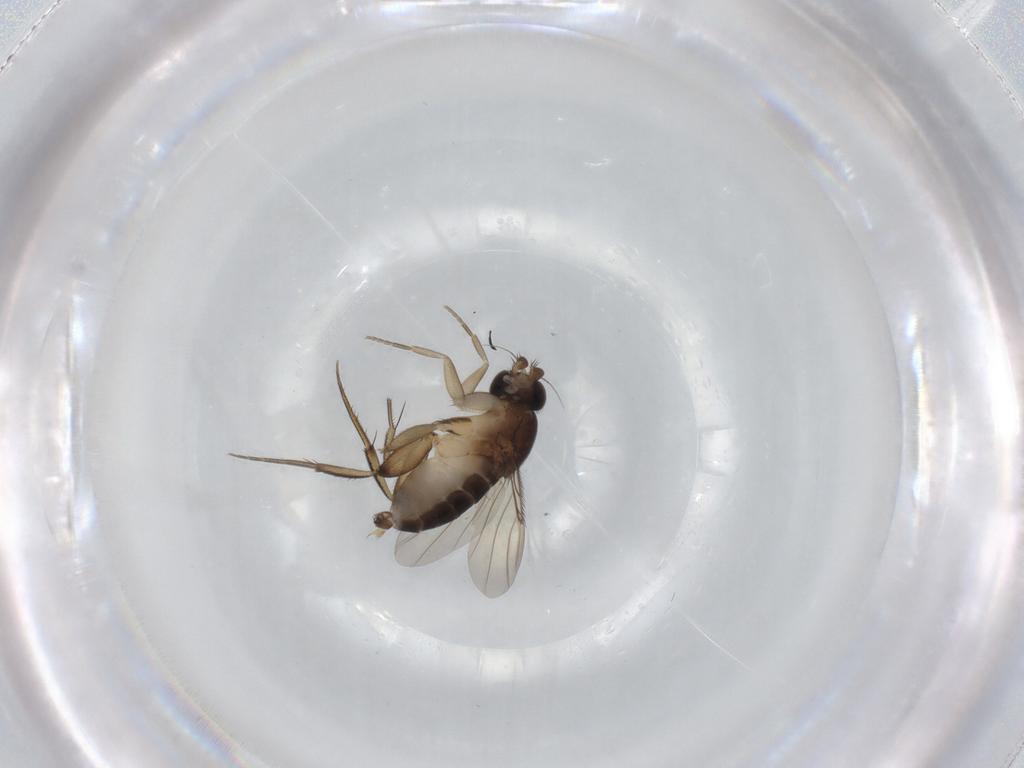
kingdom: Animalia
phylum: Arthropoda
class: Insecta
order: Diptera
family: Phoridae
